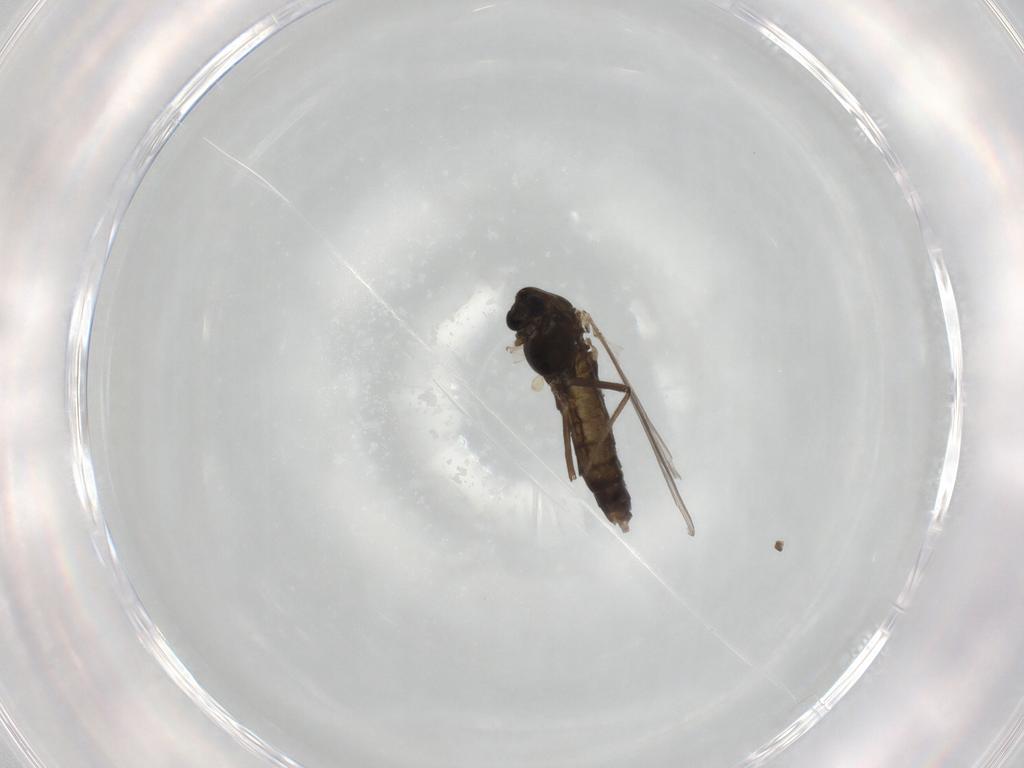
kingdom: Animalia
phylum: Arthropoda
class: Insecta
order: Diptera
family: Chironomidae
